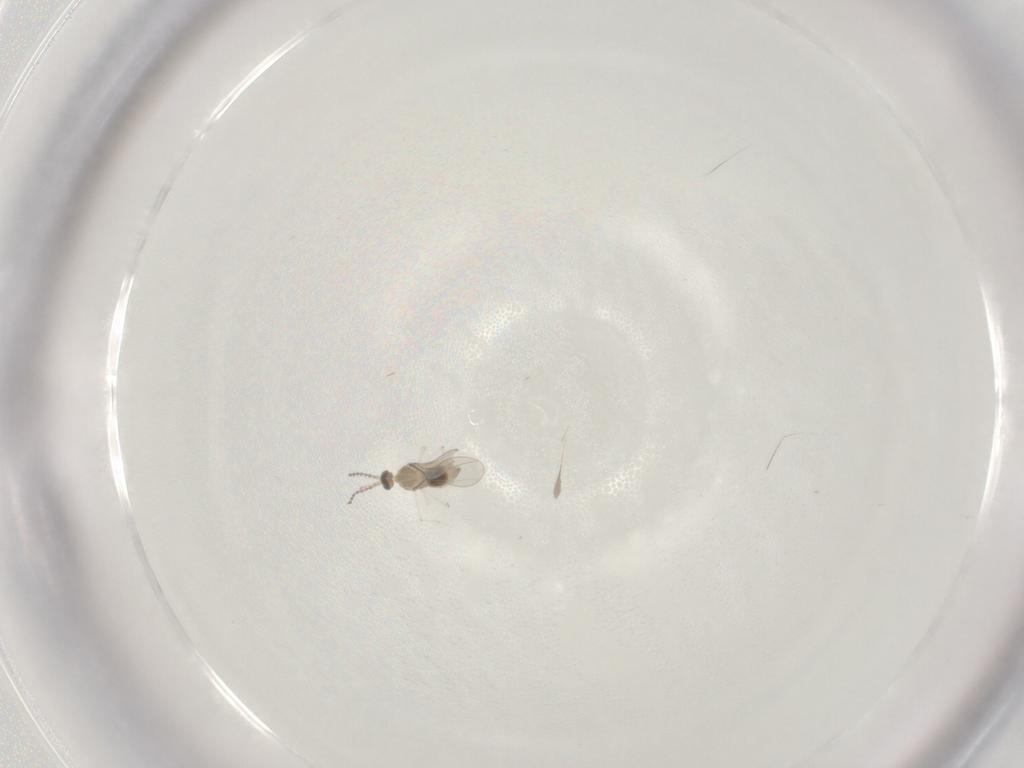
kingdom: Animalia
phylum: Arthropoda
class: Insecta
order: Diptera
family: Cecidomyiidae
